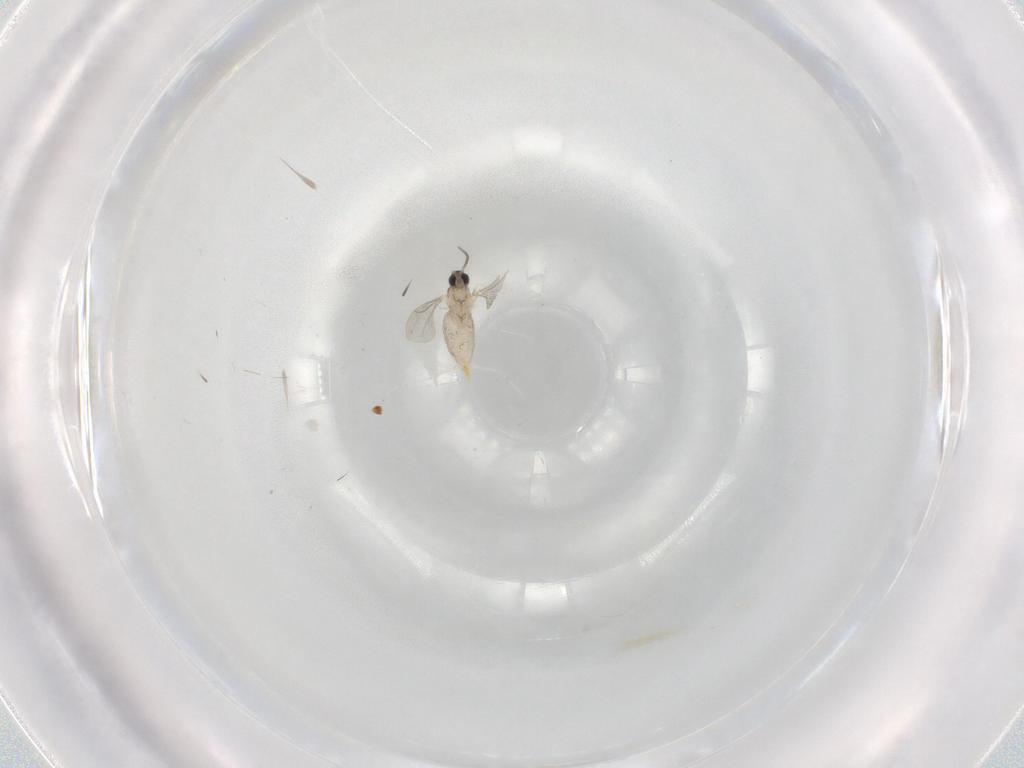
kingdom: Animalia
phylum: Arthropoda
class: Insecta
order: Diptera
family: Cecidomyiidae
